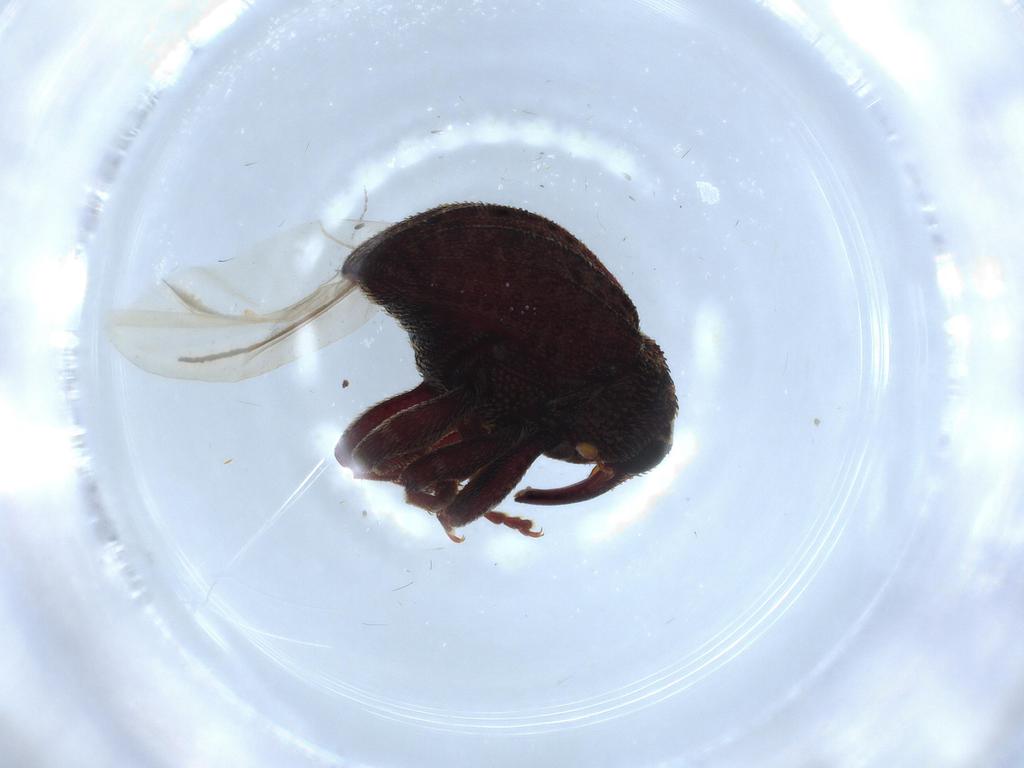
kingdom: Animalia
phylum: Arthropoda
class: Insecta
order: Coleoptera
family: Curculionidae
